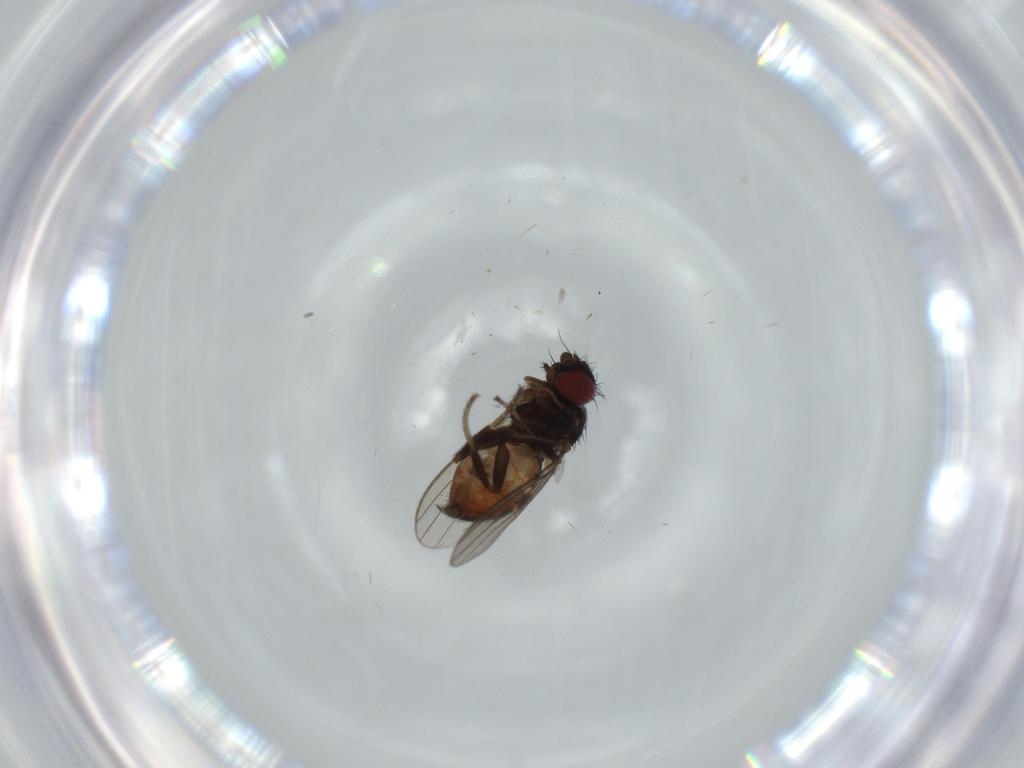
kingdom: Animalia
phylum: Arthropoda
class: Insecta
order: Diptera
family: Milichiidae
